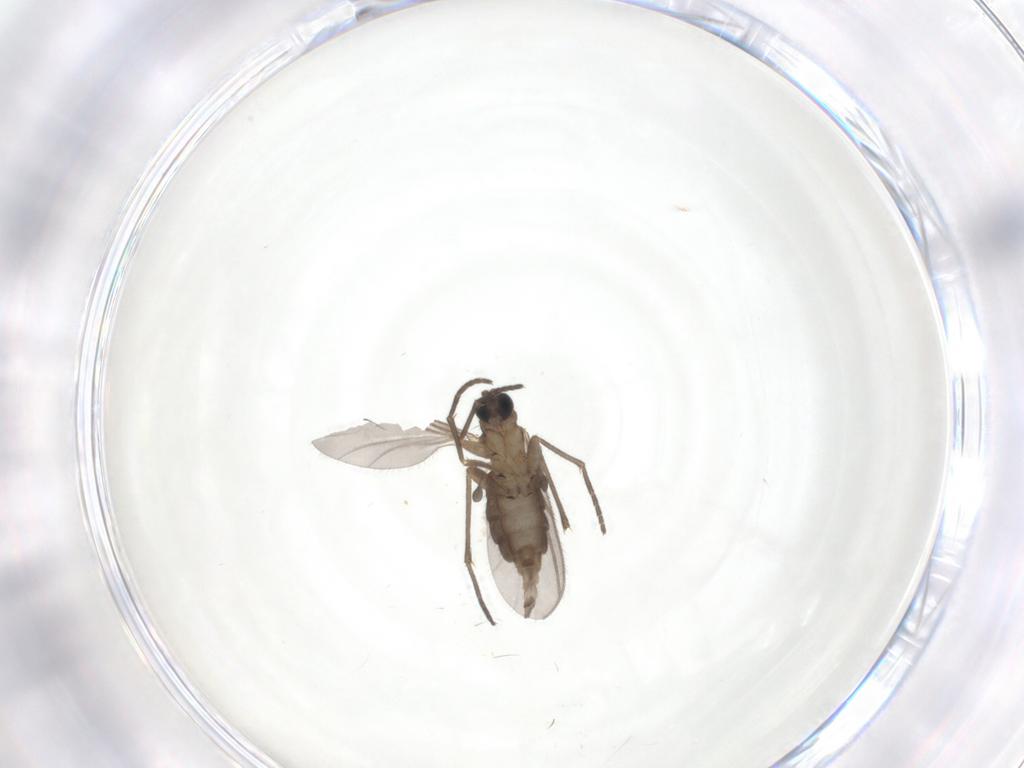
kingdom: Animalia
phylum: Arthropoda
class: Insecta
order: Diptera
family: Sciaridae
